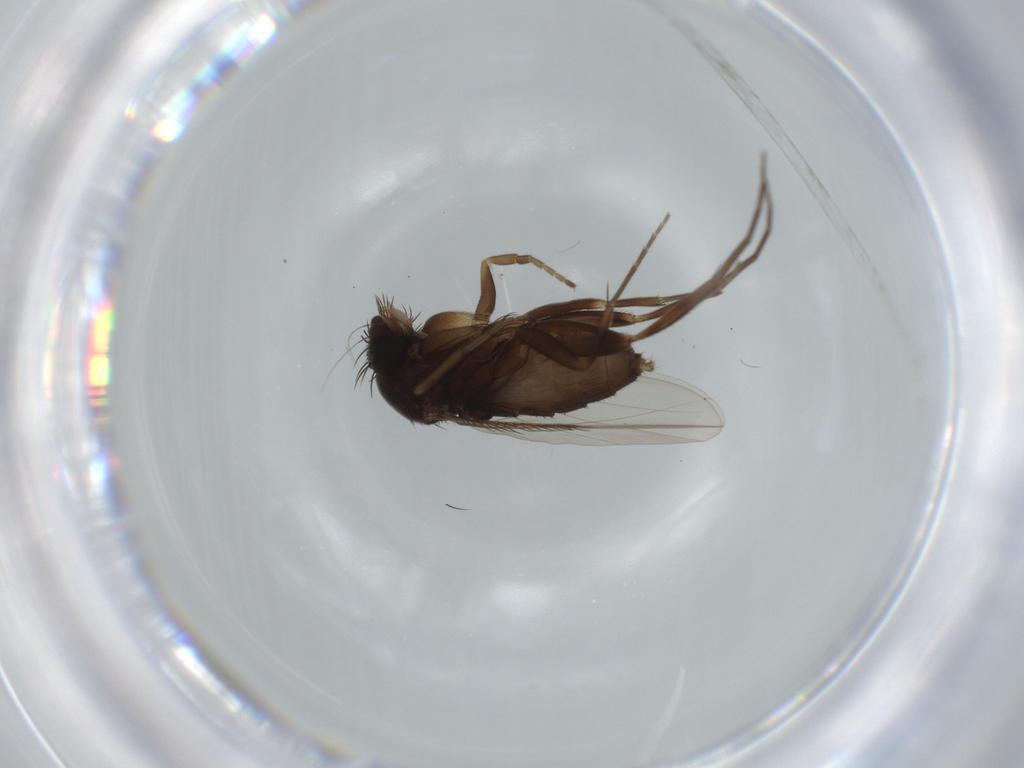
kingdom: Animalia
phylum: Arthropoda
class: Insecta
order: Diptera
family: Phoridae
